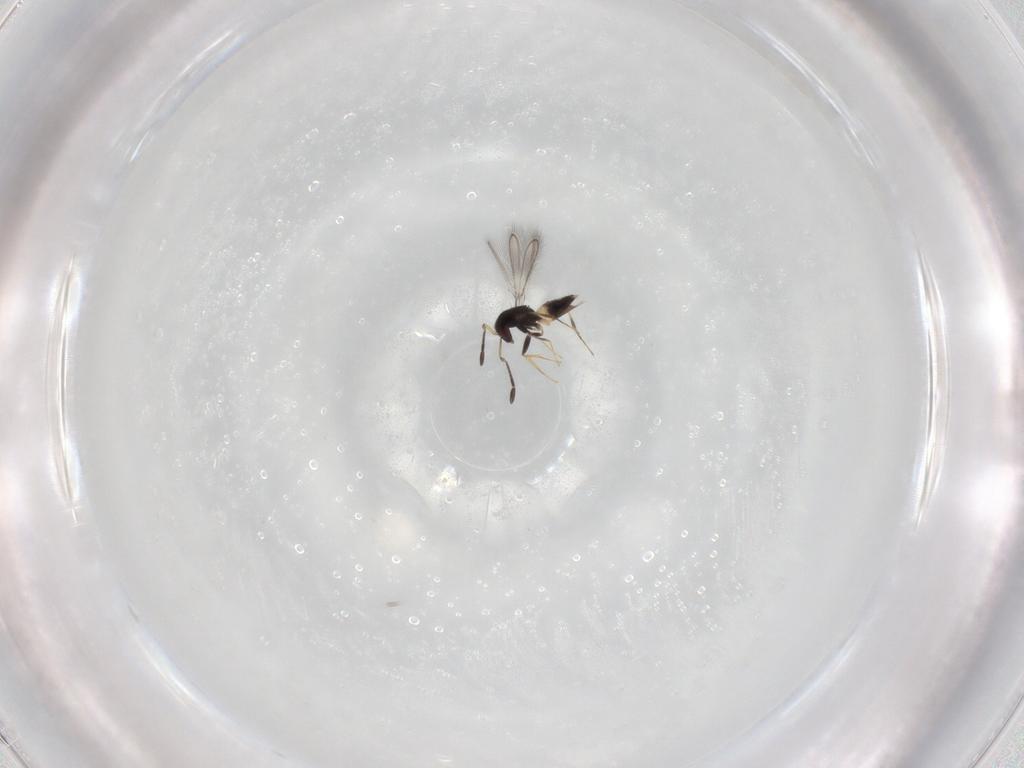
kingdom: Animalia
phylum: Arthropoda
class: Insecta
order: Hymenoptera
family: Mymaridae
